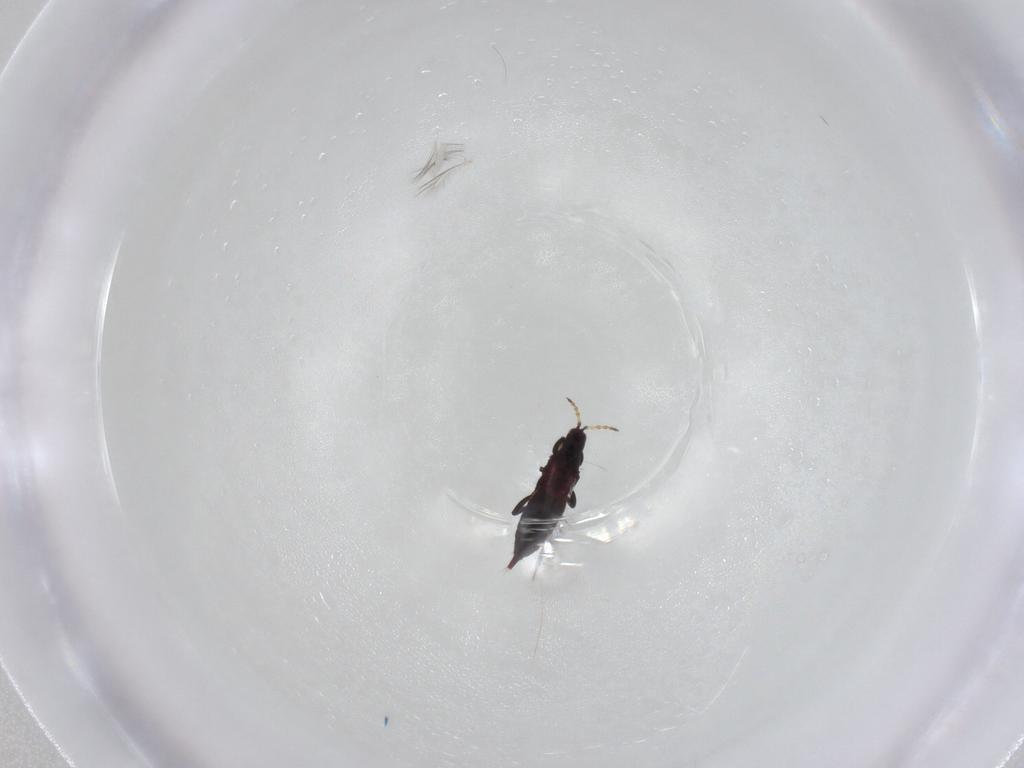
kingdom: Animalia
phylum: Arthropoda
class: Insecta
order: Thysanoptera
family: Phlaeothripidae
